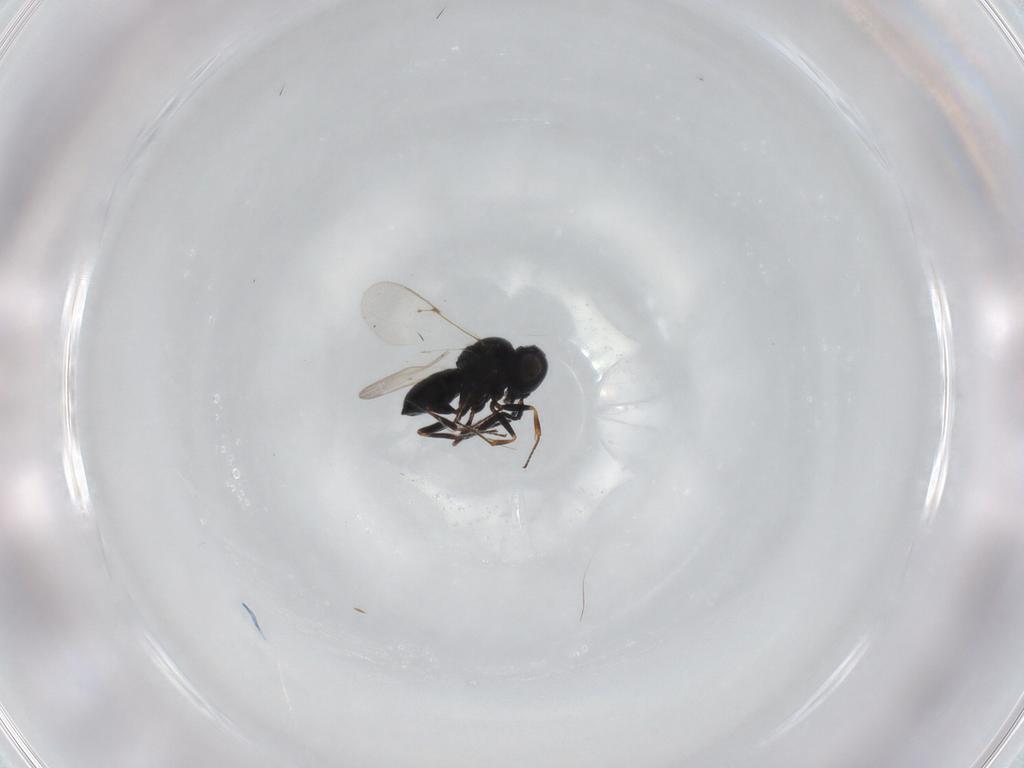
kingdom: Animalia
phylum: Arthropoda
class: Insecta
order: Hymenoptera
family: Scelionidae
